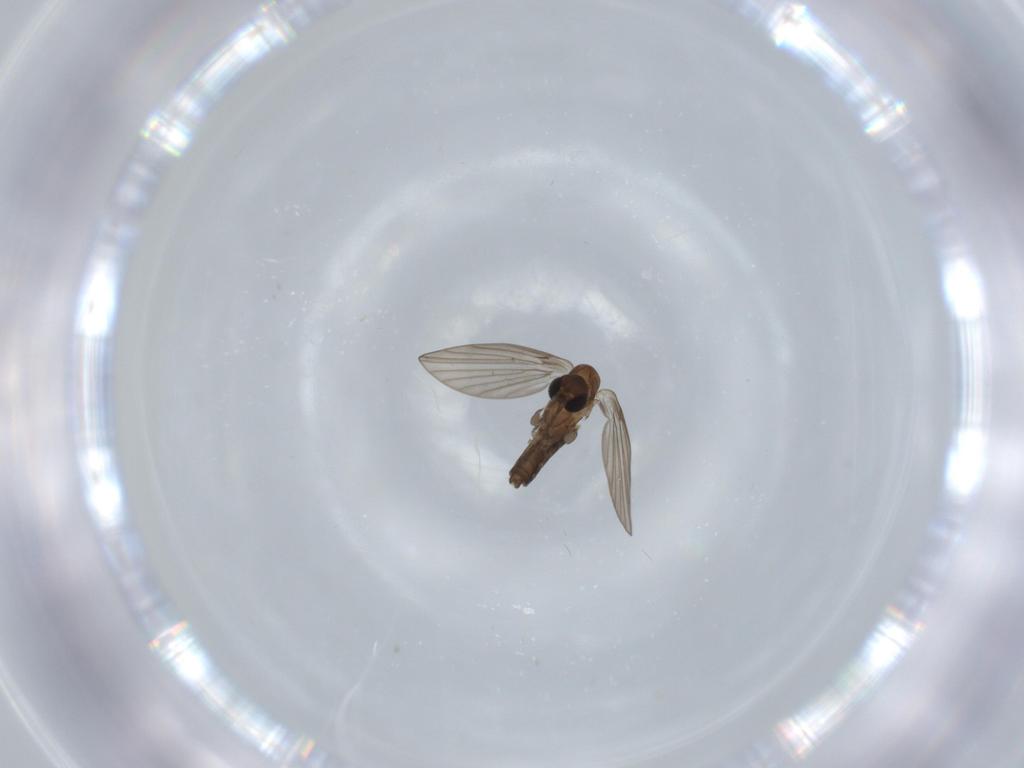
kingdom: Animalia
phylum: Arthropoda
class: Insecta
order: Diptera
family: Psychodidae
